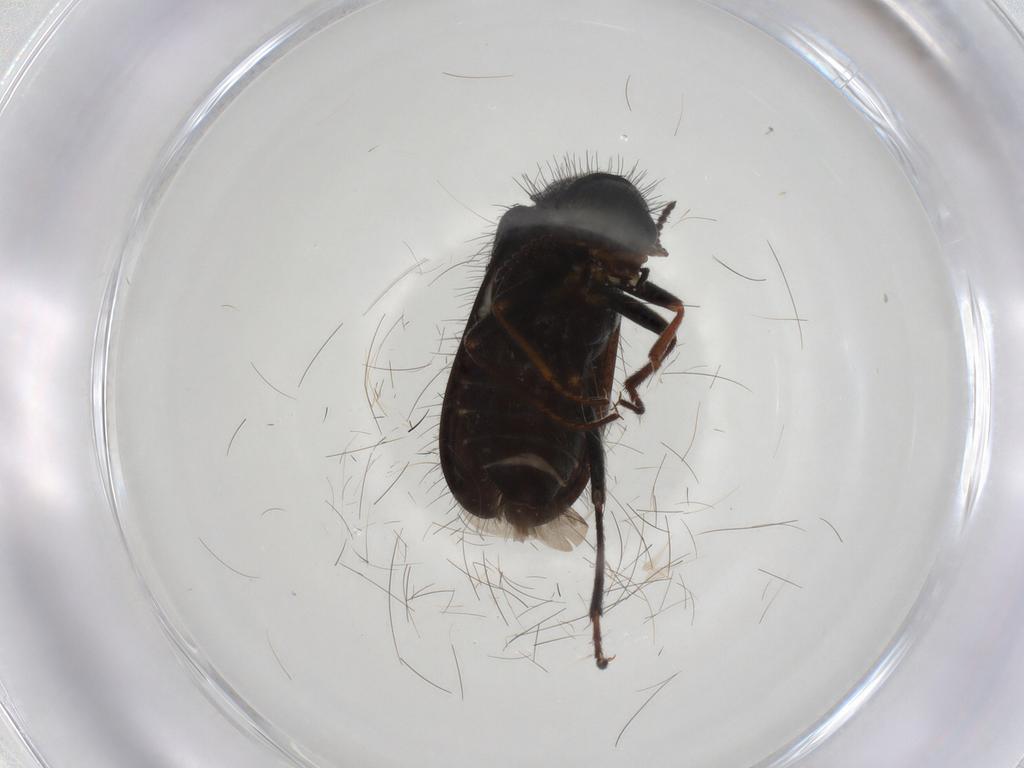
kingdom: Animalia
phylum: Arthropoda
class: Insecta
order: Coleoptera
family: Melyridae
